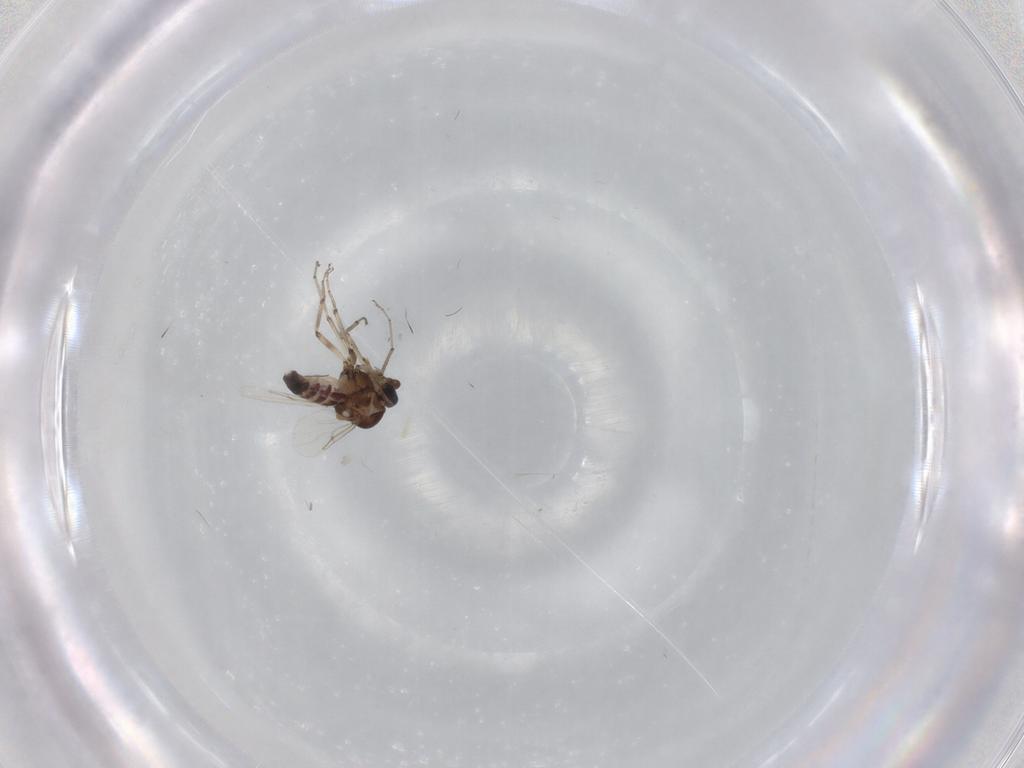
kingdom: Animalia
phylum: Arthropoda
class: Insecta
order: Diptera
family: Ceratopogonidae
